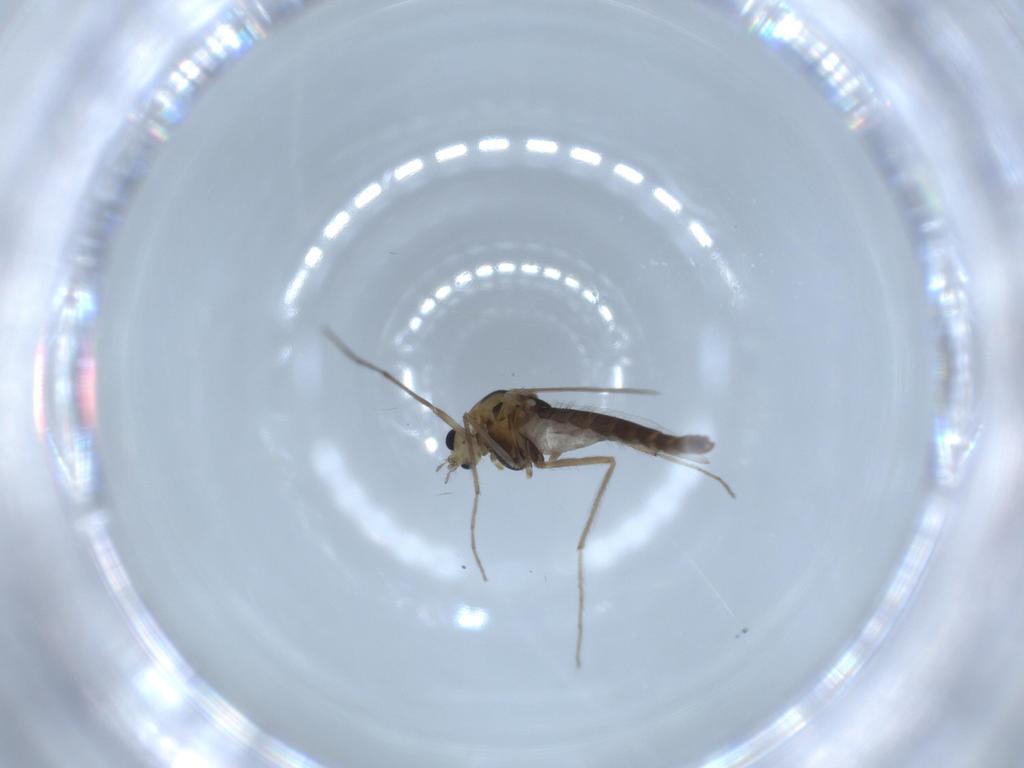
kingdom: Animalia
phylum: Arthropoda
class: Insecta
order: Diptera
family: Chironomidae
